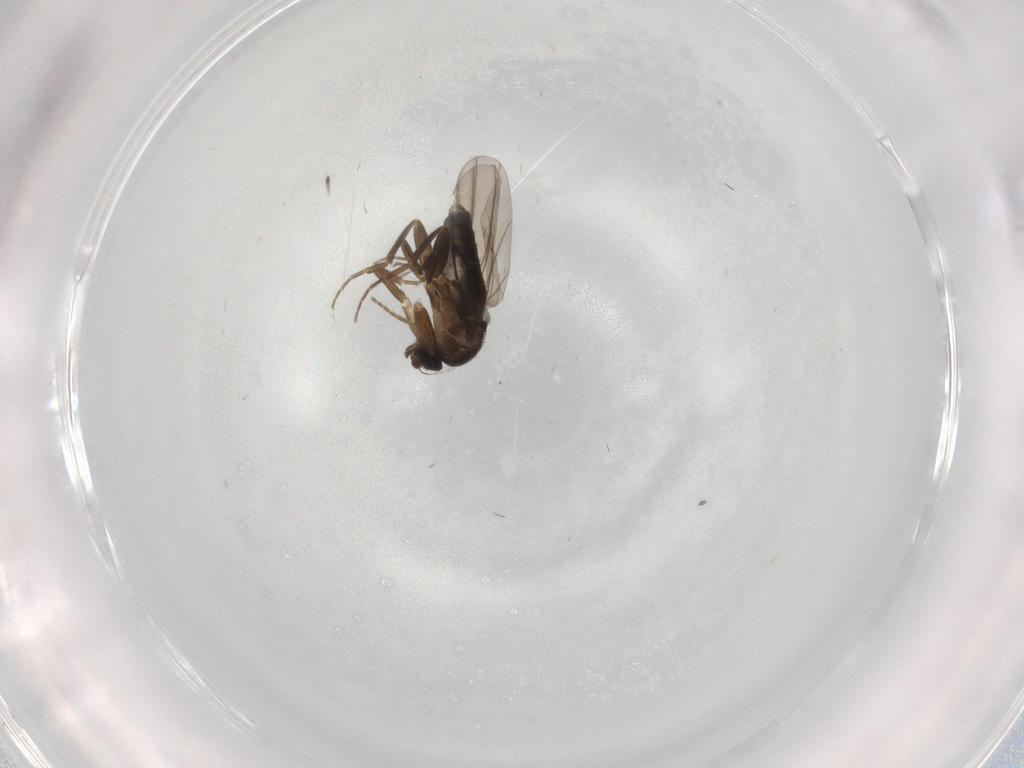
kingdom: Animalia
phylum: Arthropoda
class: Insecta
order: Diptera
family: Phoridae
